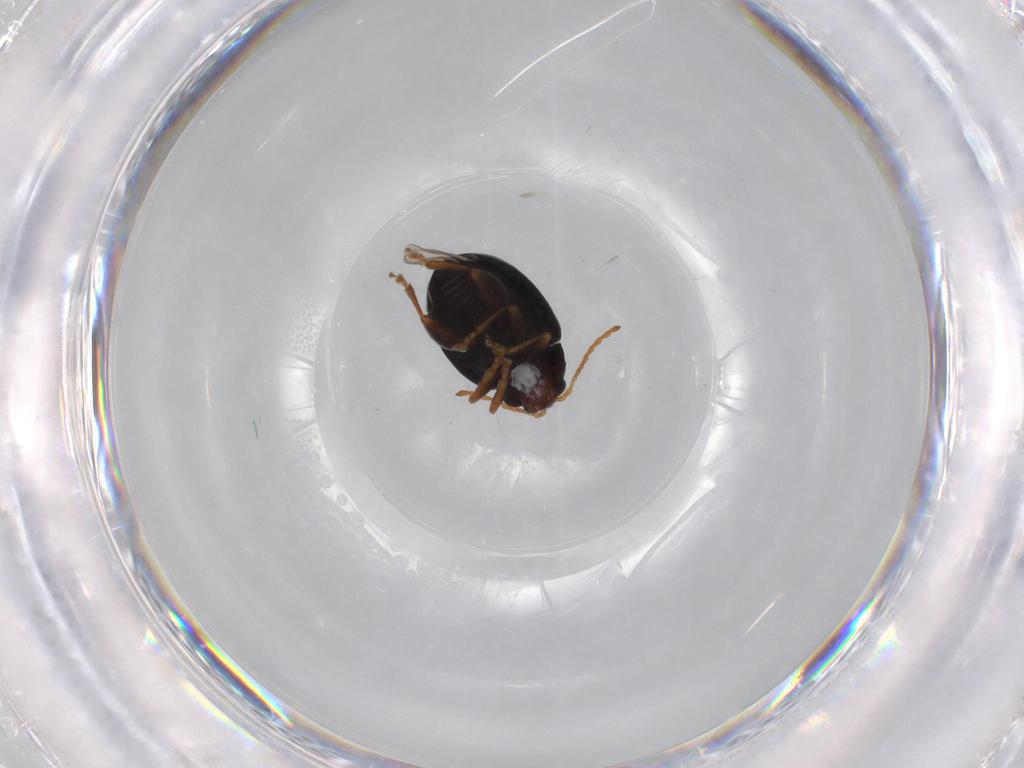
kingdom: Animalia
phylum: Arthropoda
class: Insecta
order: Coleoptera
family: Chrysomelidae
